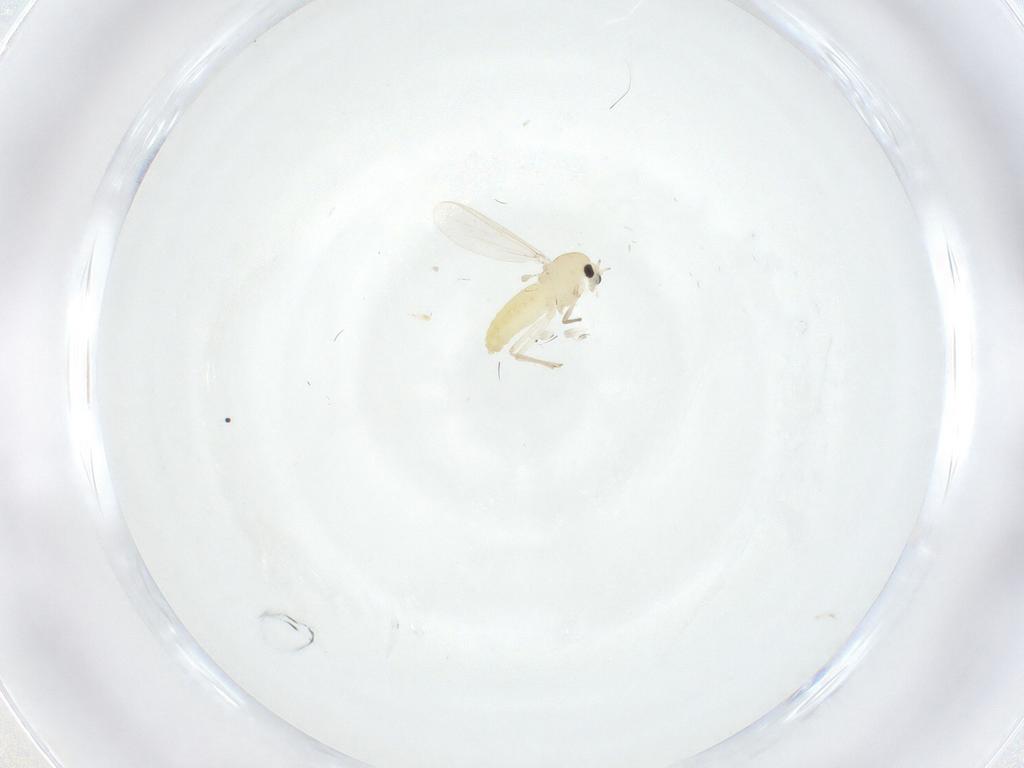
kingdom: Animalia
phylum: Arthropoda
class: Insecta
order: Diptera
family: Chironomidae
